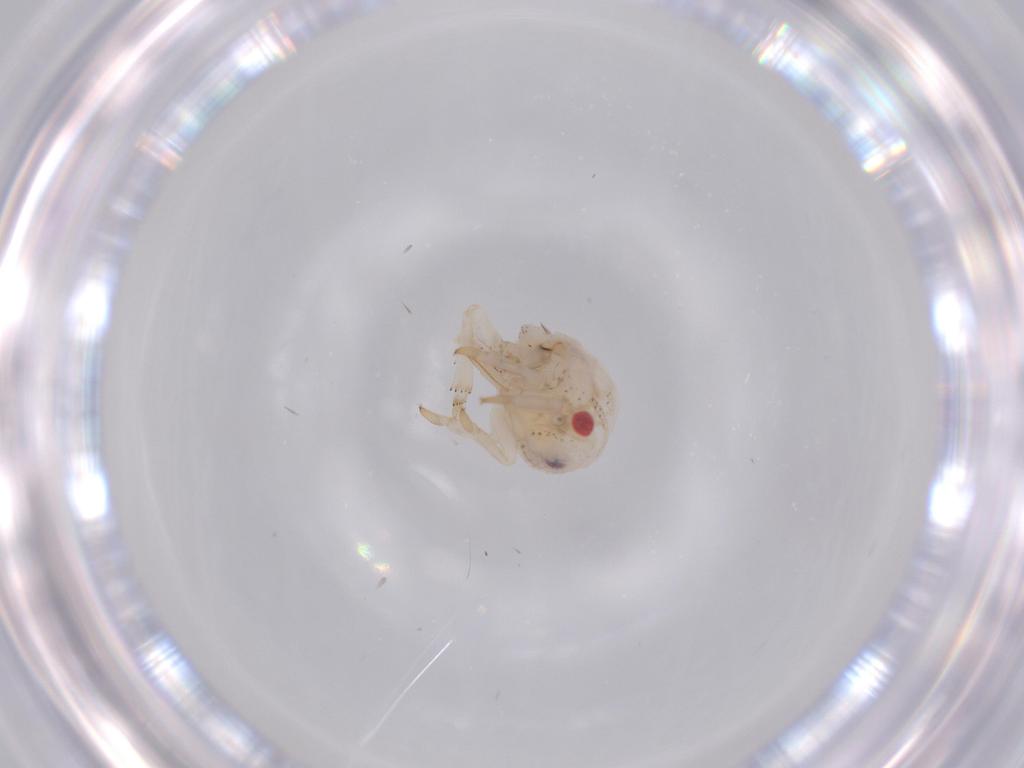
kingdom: Animalia
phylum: Arthropoda
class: Insecta
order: Hemiptera
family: Acanaloniidae
